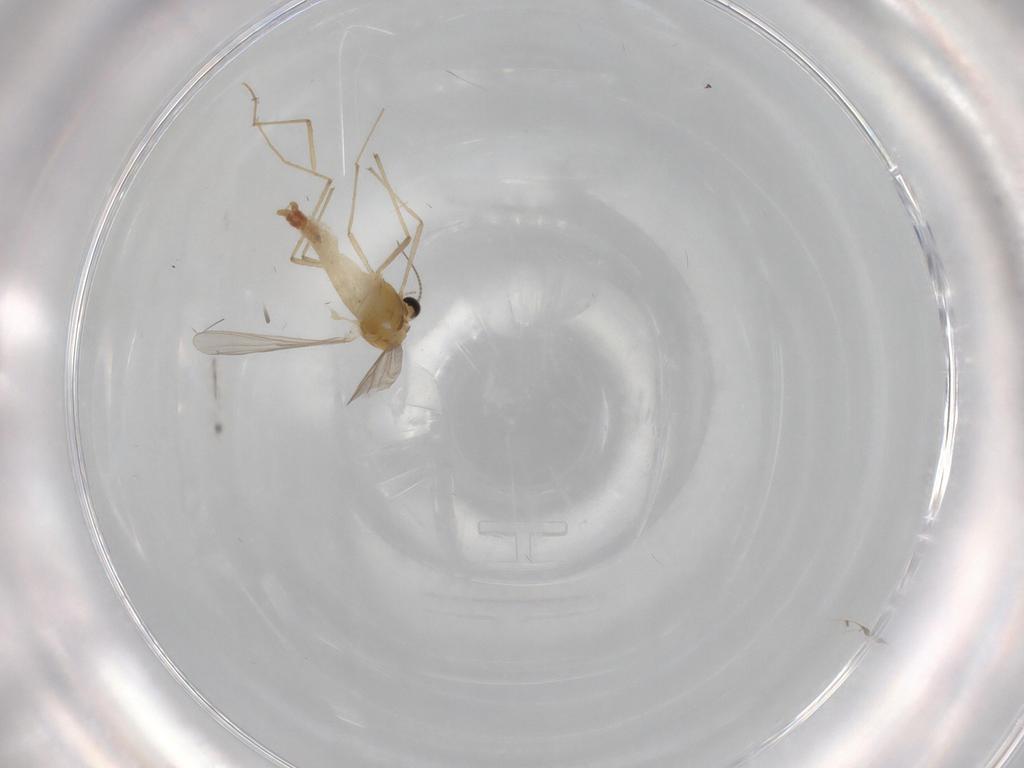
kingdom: Animalia
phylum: Arthropoda
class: Insecta
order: Diptera
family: Chironomidae
